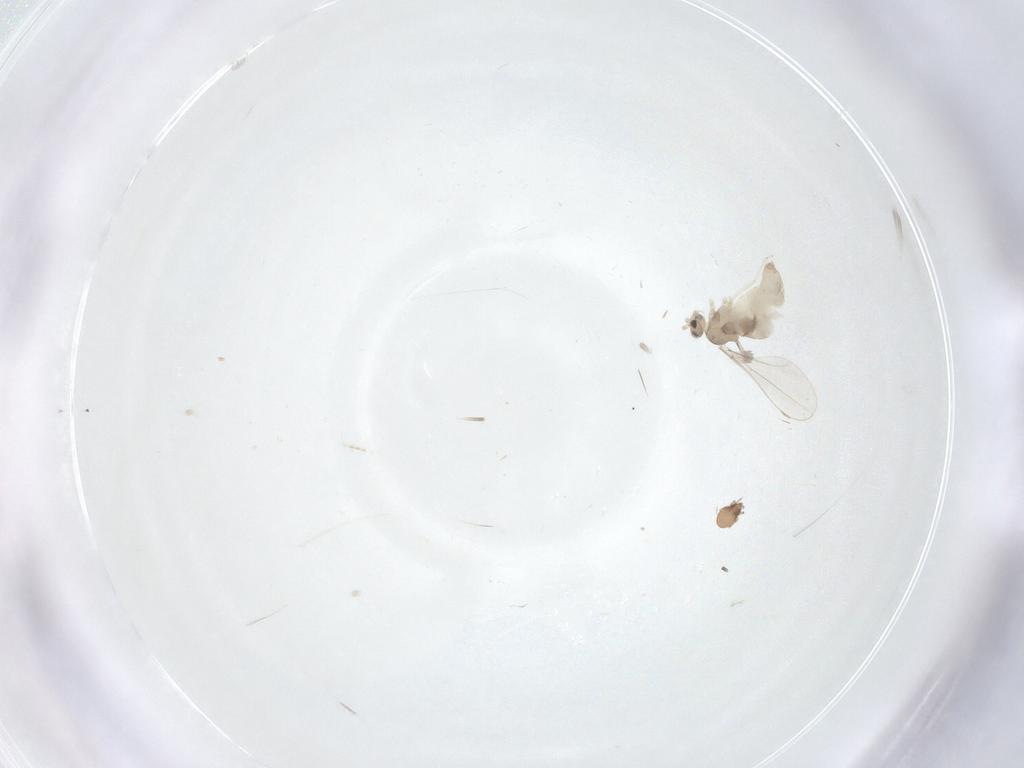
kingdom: Animalia
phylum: Arthropoda
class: Insecta
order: Diptera
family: Cecidomyiidae
